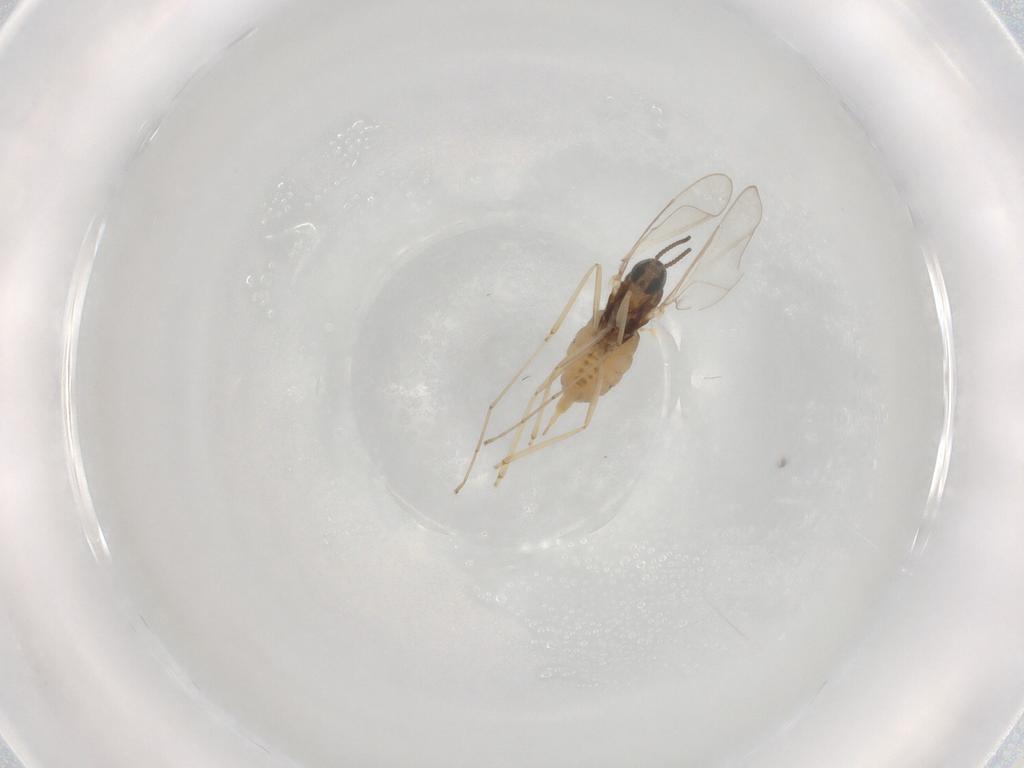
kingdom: Animalia
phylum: Arthropoda
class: Insecta
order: Diptera
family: Cecidomyiidae
